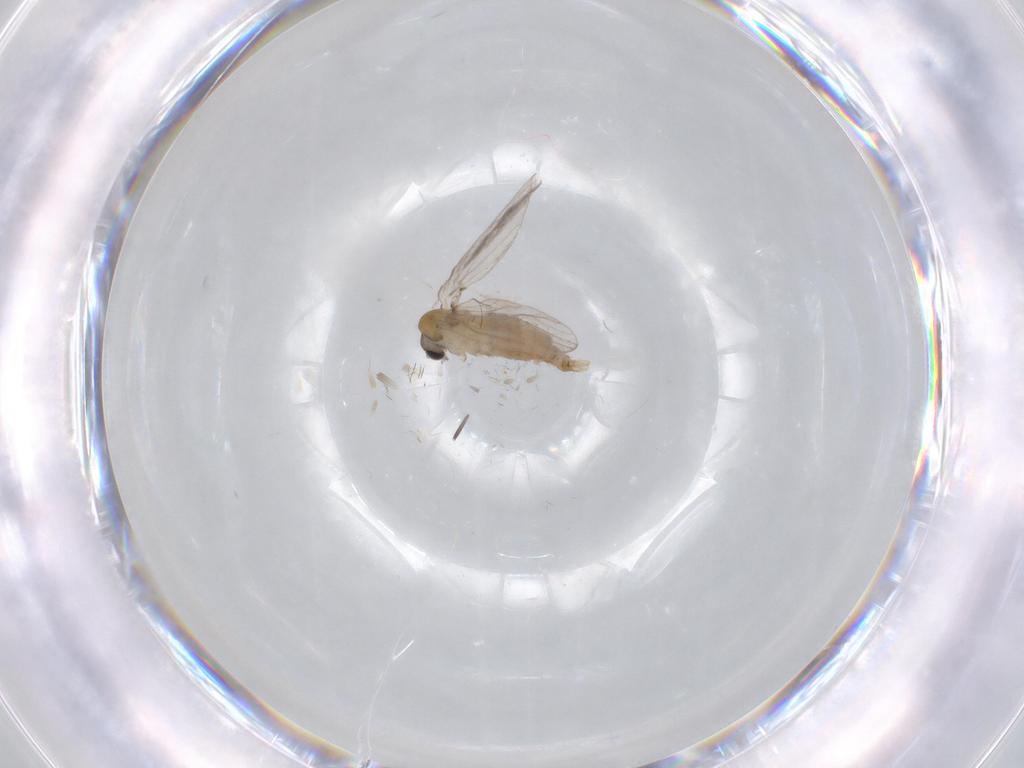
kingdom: Animalia
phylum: Arthropoda
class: Insecta
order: Diptera
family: Psychodidae
